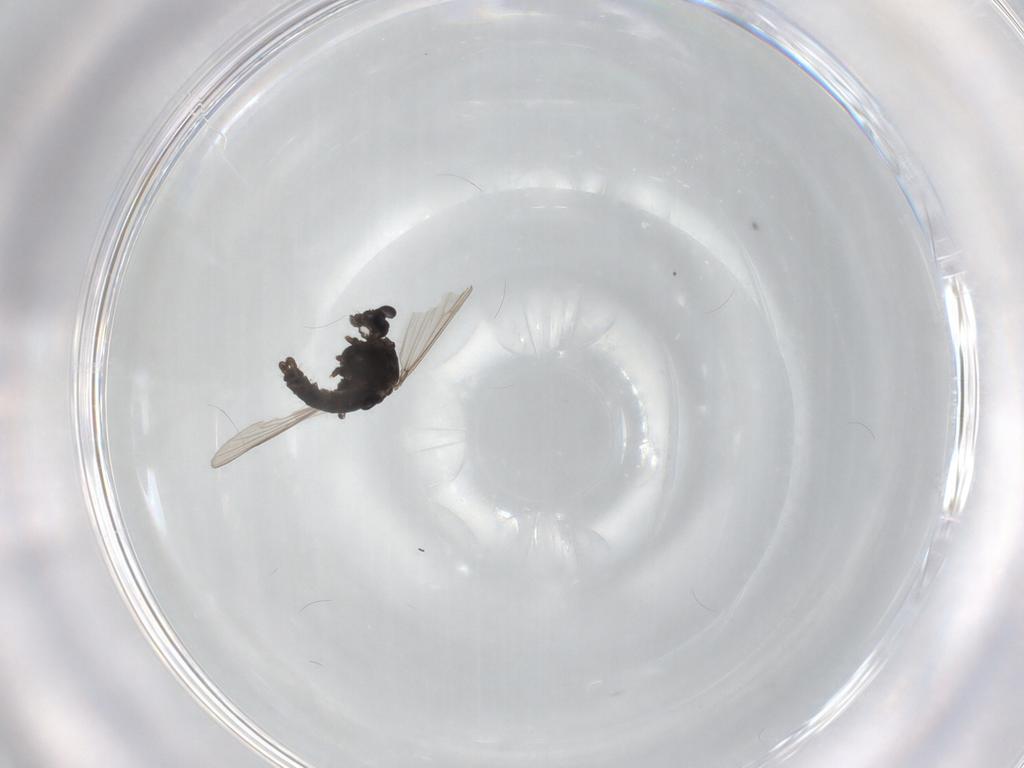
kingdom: Animalia
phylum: Arthropoda
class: Insecta
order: Diptera
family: Chironomidae
